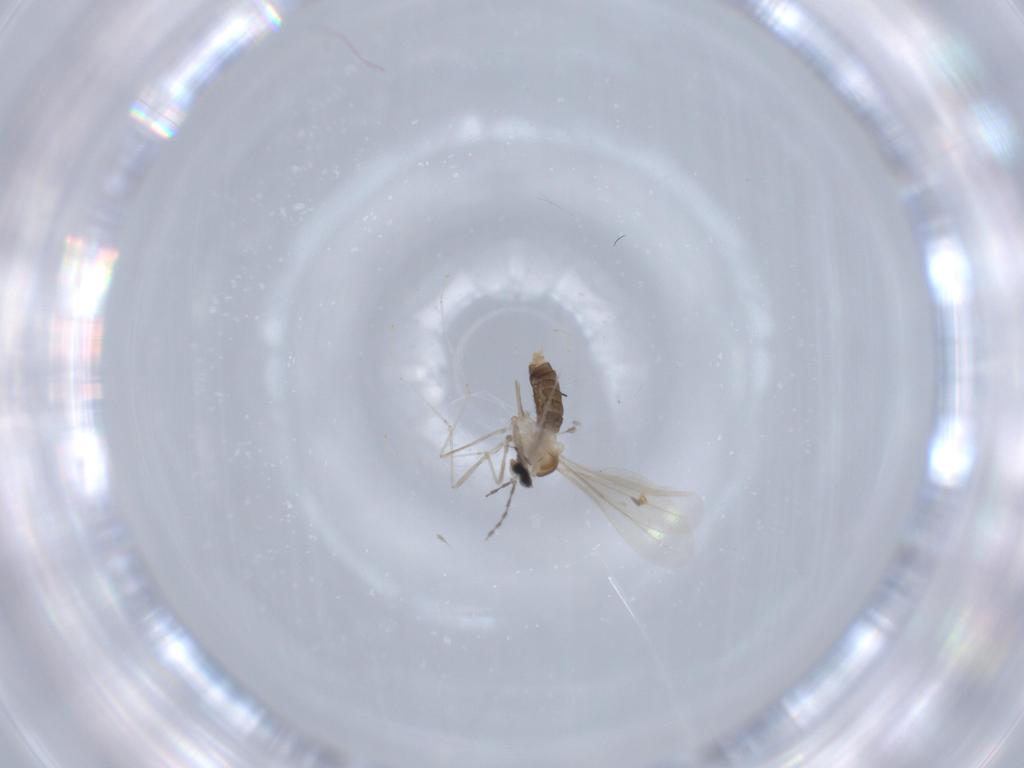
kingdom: Animalia
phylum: Arthropoda
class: Insecta
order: Diptera
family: Cecidomyiidae
